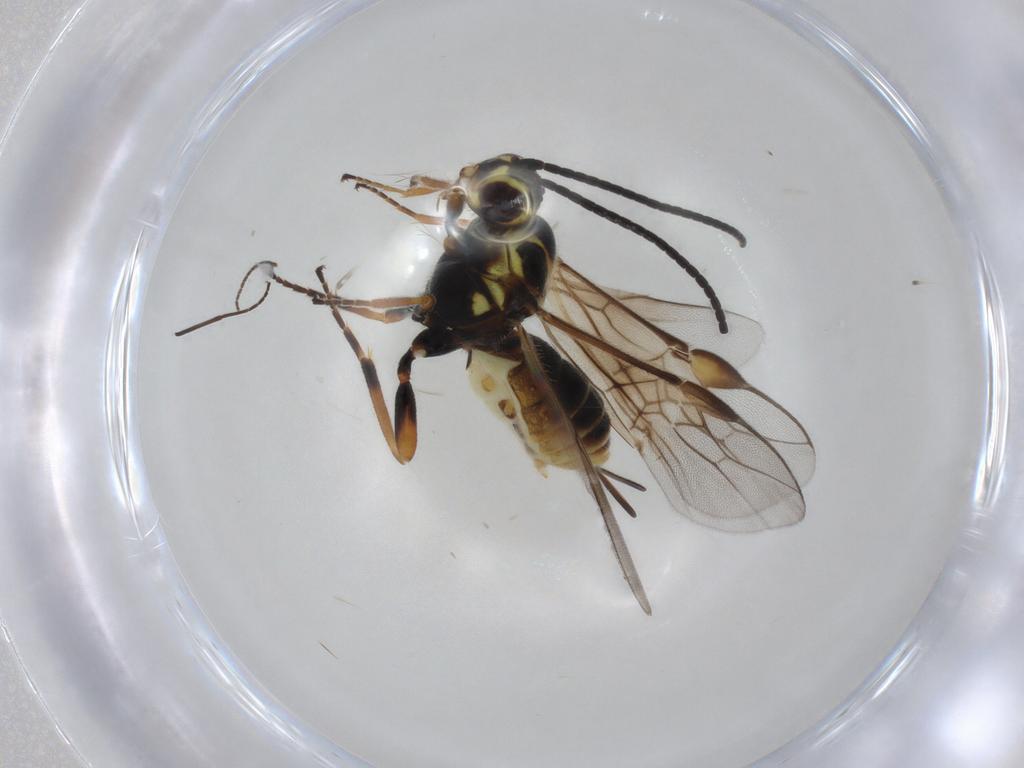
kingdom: Animalia
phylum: Arthropoda
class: Insecta
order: Hymenoptera
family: Braconidae
